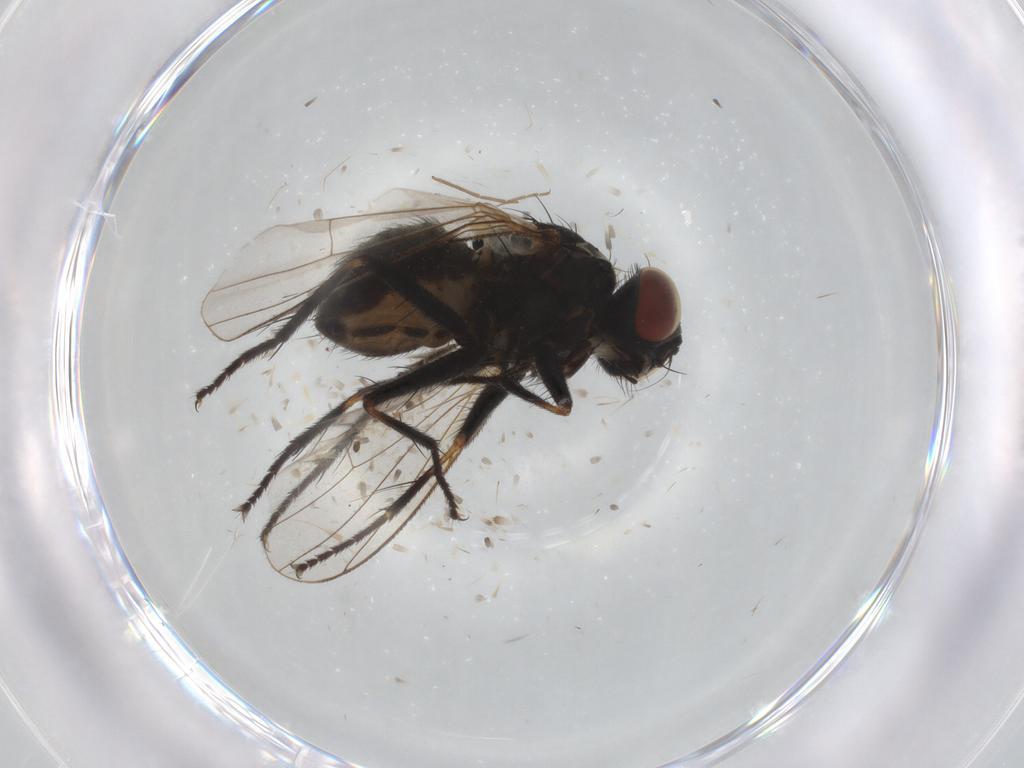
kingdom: Animalia
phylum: Arthropoda
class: Insecta
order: Diptera
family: Muscidae
